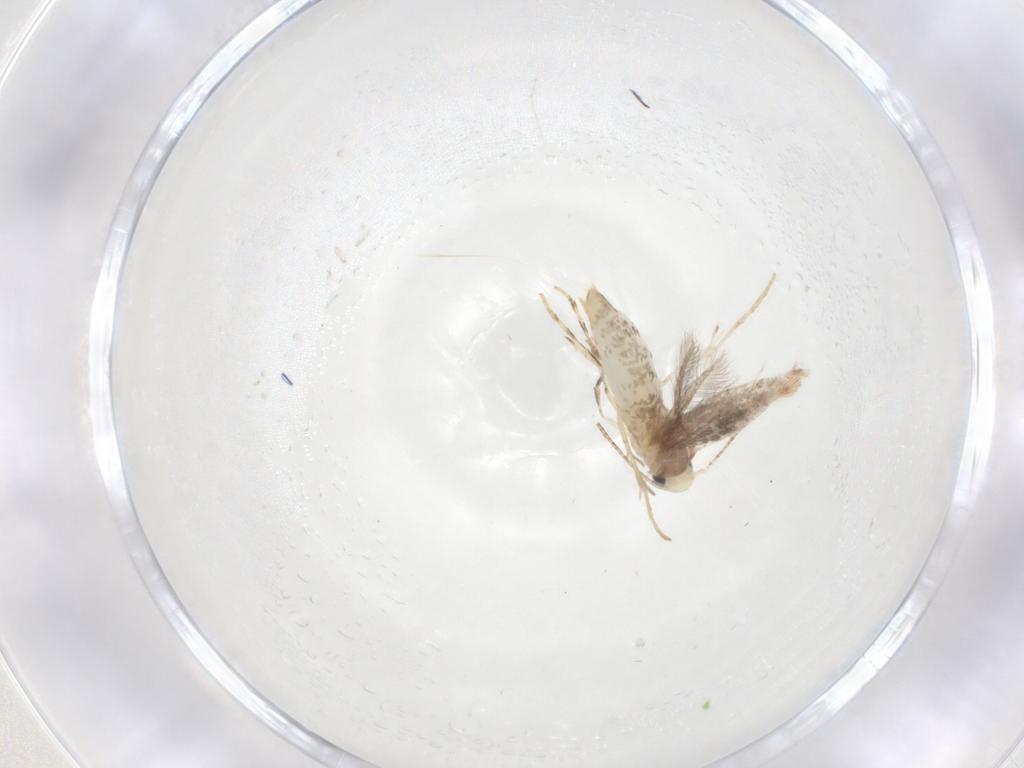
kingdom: Animalia
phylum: Arthropoda
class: Insecta
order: Lepidoptera
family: Gracillariidae
